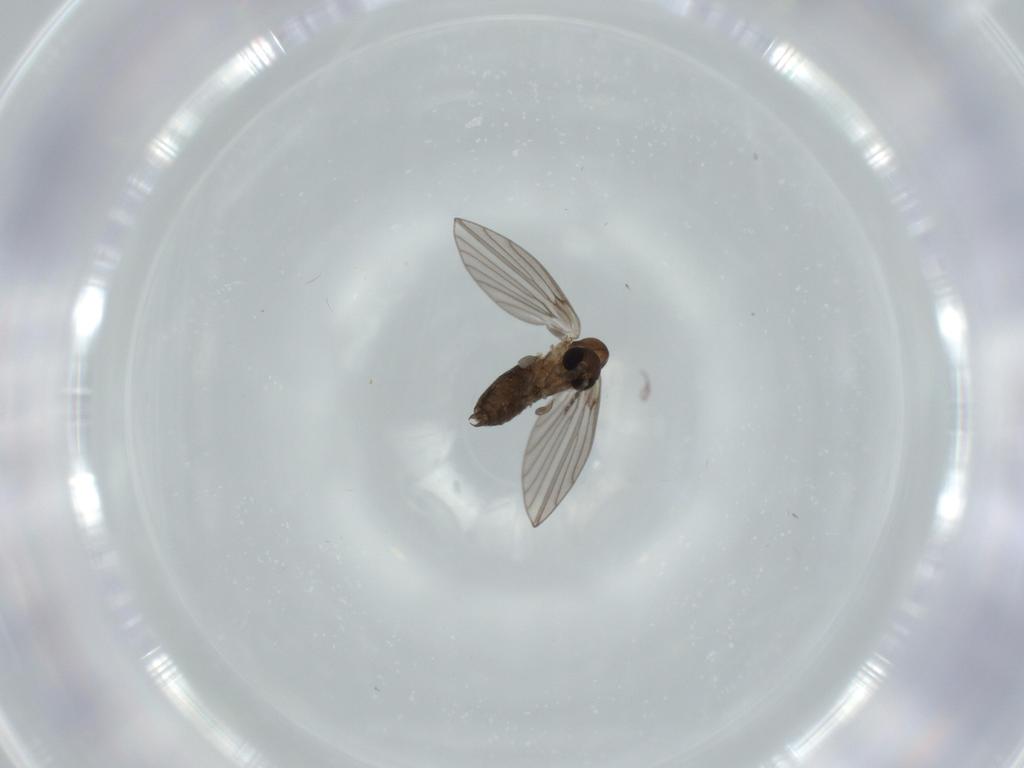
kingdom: Animalia
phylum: Arthropoda
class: Insecta
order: Diptera
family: Psychodidae
